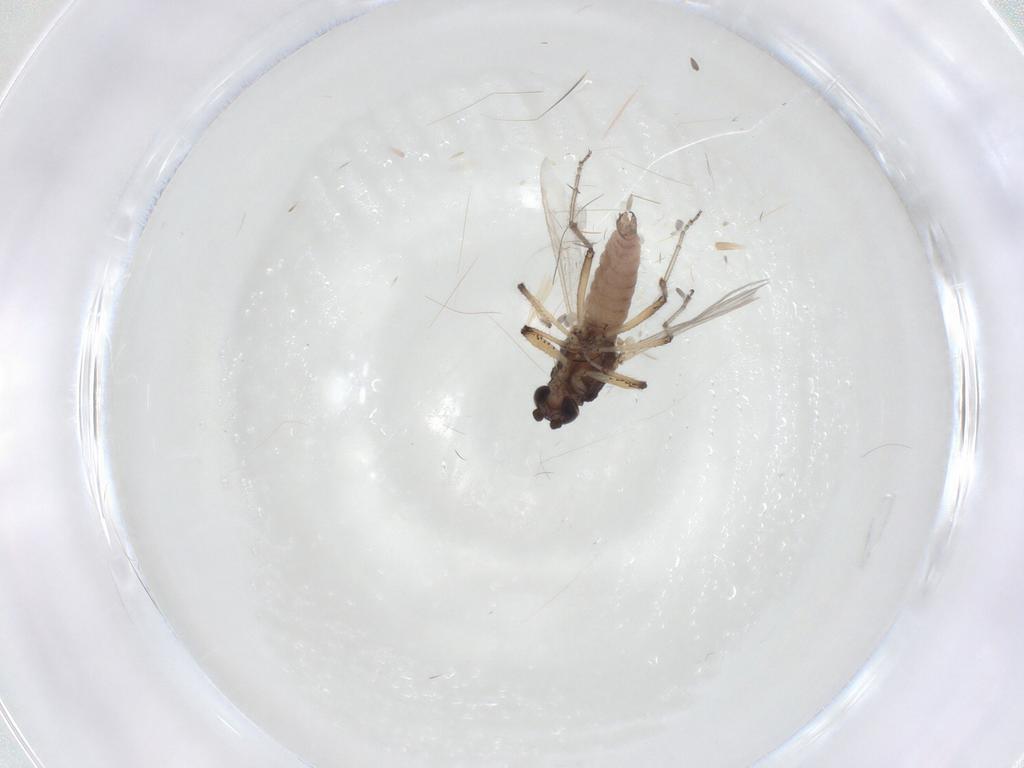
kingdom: Animalia
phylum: Arthropoda
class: Insecta
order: Diptera
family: Ceratopogonidae
